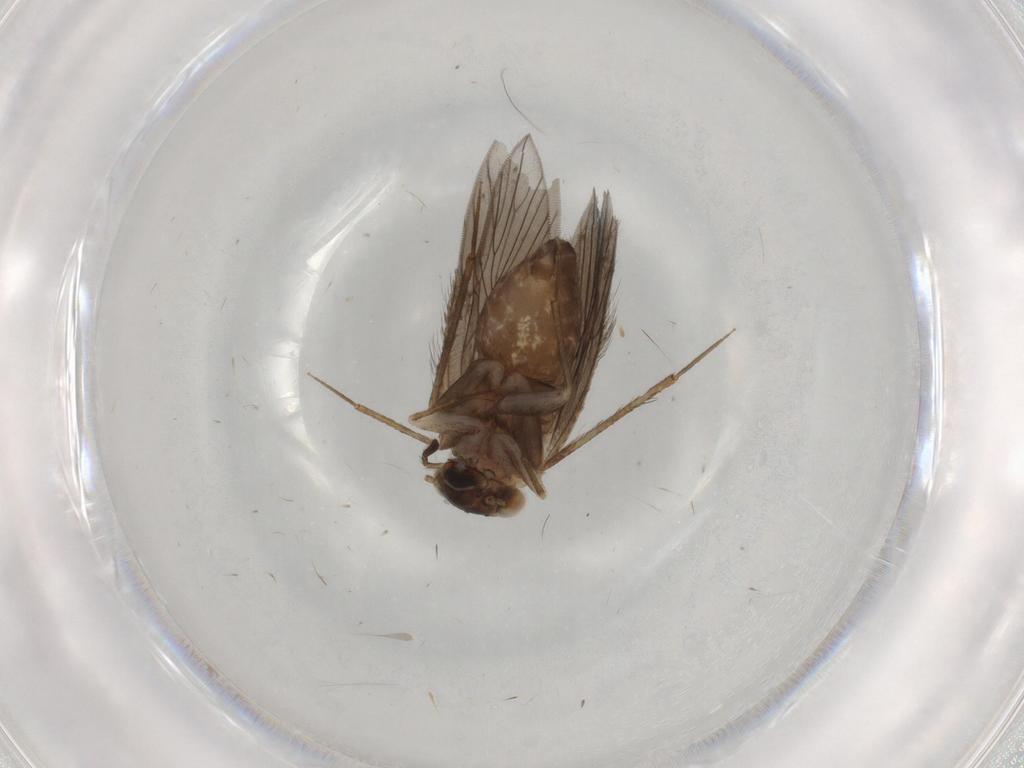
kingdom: Animalia
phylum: Arthropoda
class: Insecta
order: Psocodea
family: Lepidopsocidae
